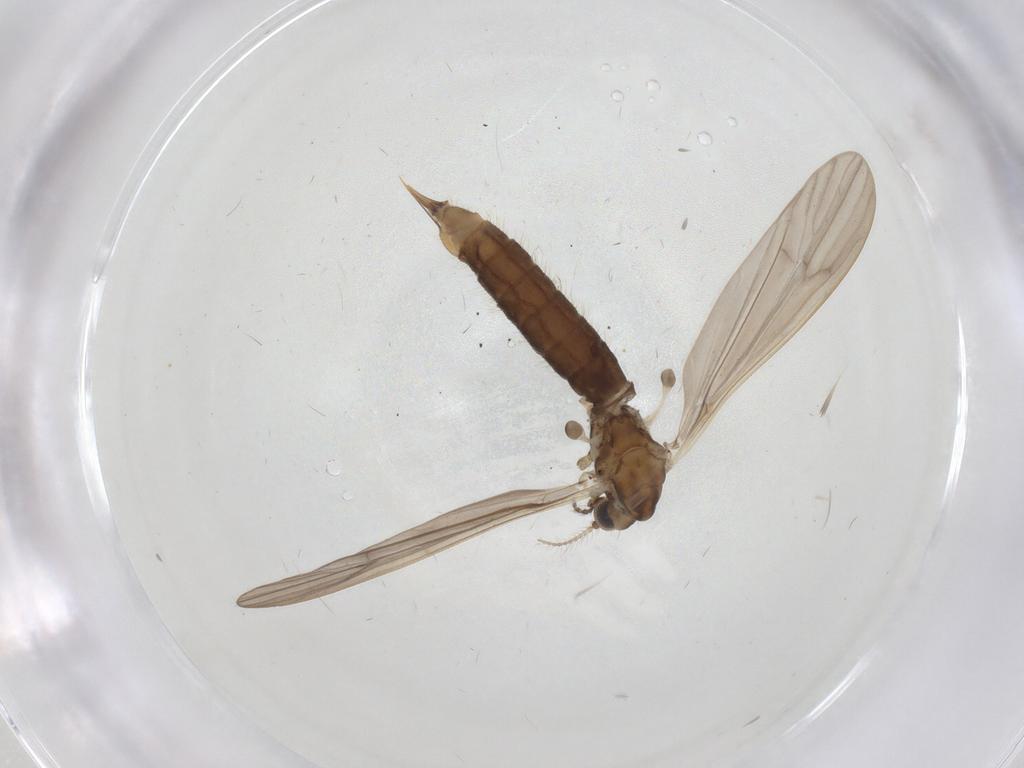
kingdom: Animalia
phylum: Arthropoda
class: Insecta
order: Diptera
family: Limoniidae
